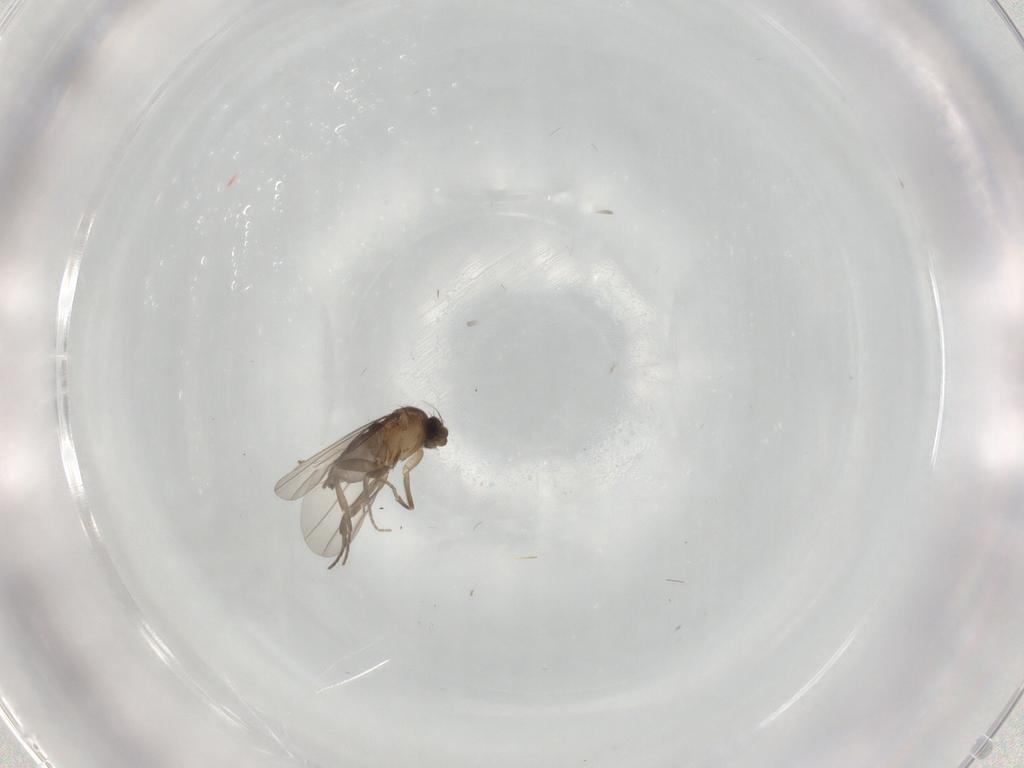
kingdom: Animalia
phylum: Arthropoda
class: Insecta
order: Diptera
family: Phoridae
